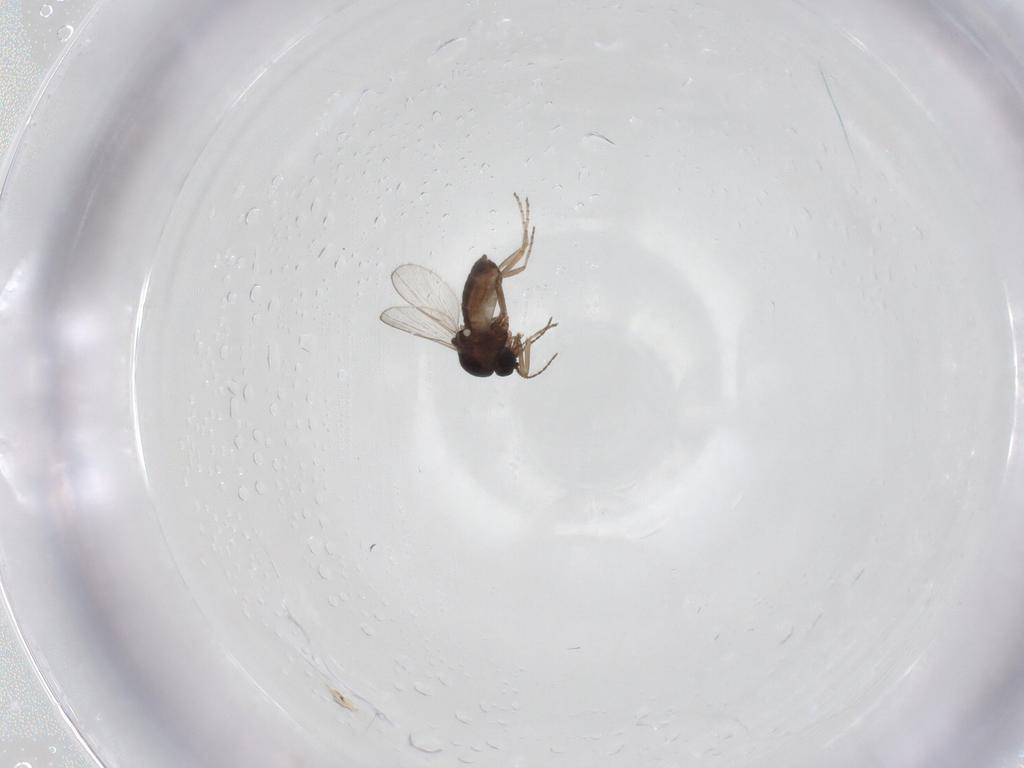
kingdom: Animalia
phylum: Arthropoda
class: Insecta
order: Diptera
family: Ceratopogonidae
